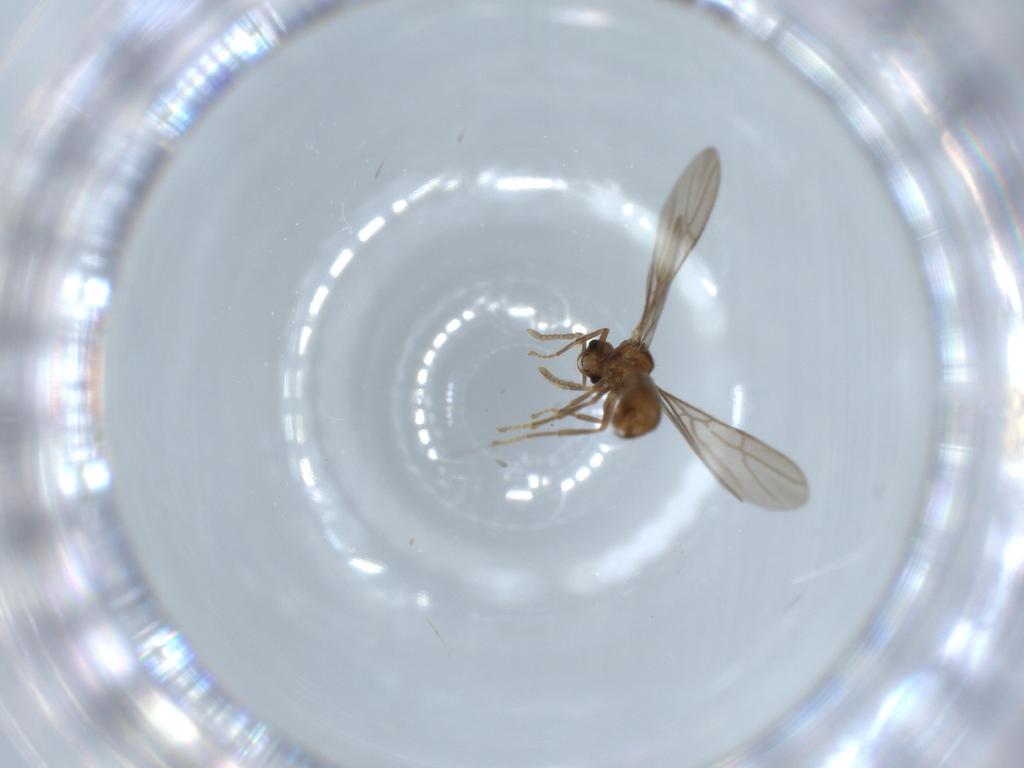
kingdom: Animalia
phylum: Arthropoda
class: Insecta
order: Hymenoptera
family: Formicidae
